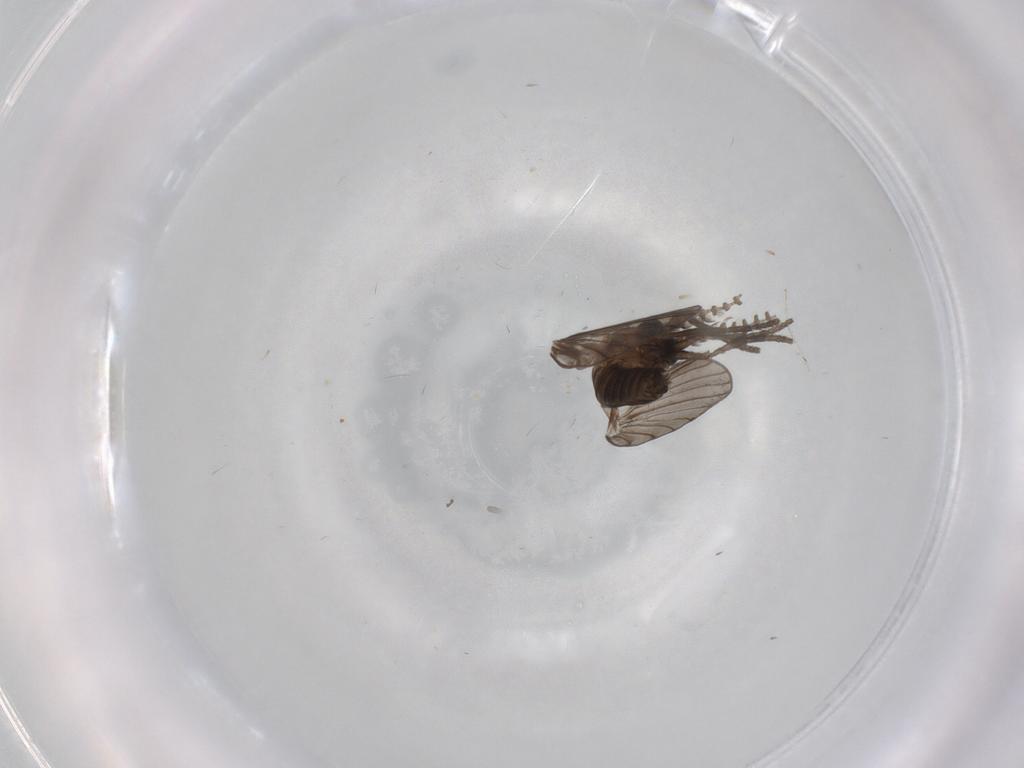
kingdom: Animalia
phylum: Arthropoda
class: Insecta
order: Diptera
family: Psychodidae
